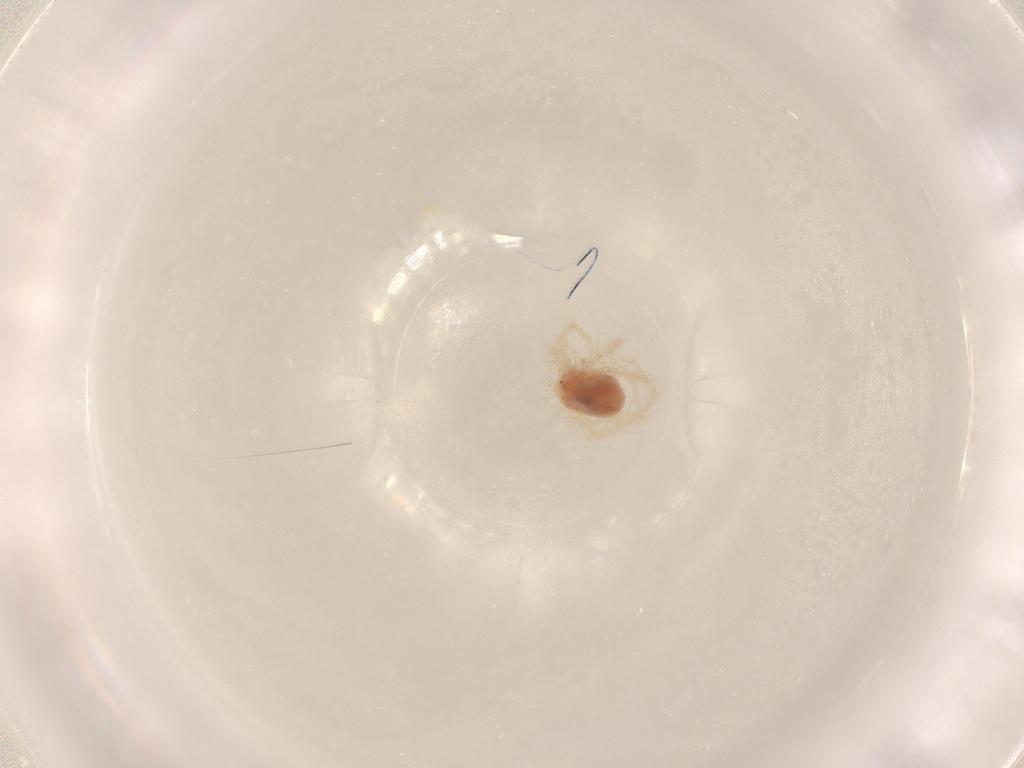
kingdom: Animalia
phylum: Arthropoda
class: Arachnida
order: Trombidiformes
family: Anystidae
